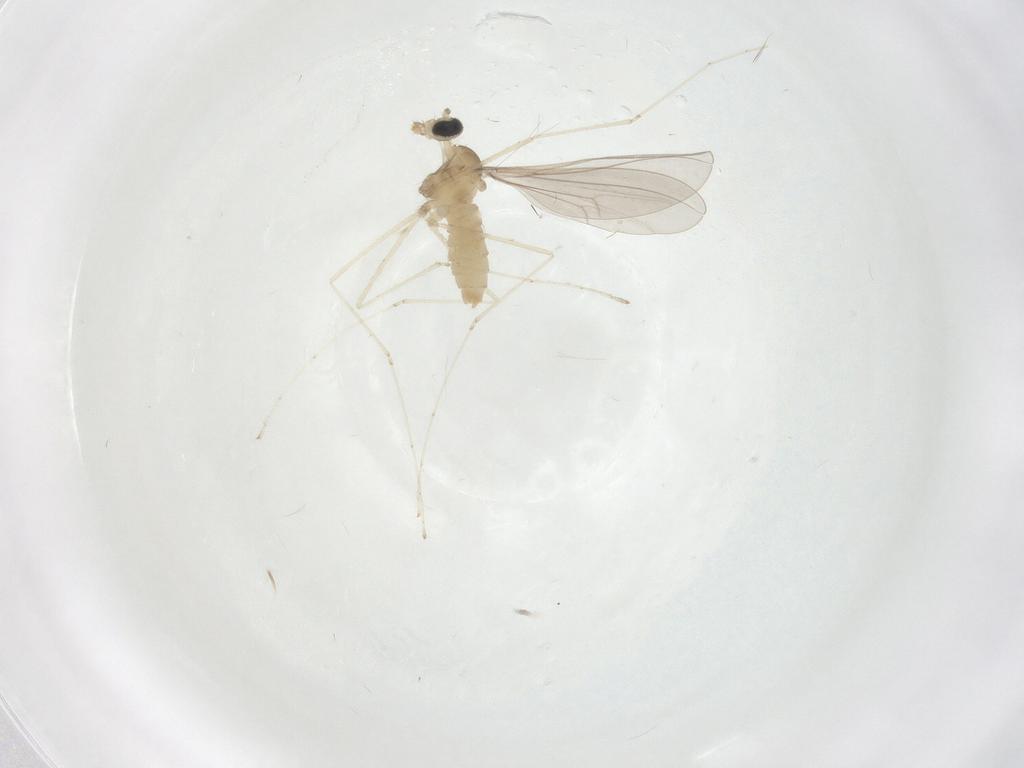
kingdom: Animalia
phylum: Arthropoda
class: Insecta
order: Diptera
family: Cecidomyiidae
